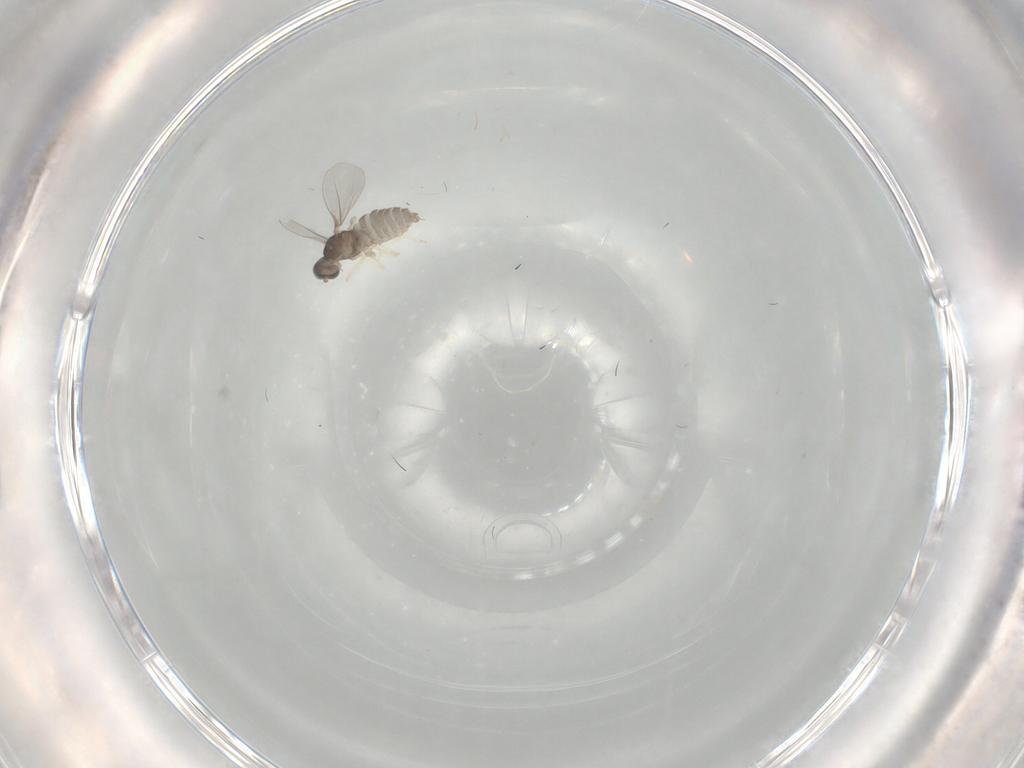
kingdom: Animalia
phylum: Arthropoda
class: Insecta
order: Diptera
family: Cecidomyiidae
